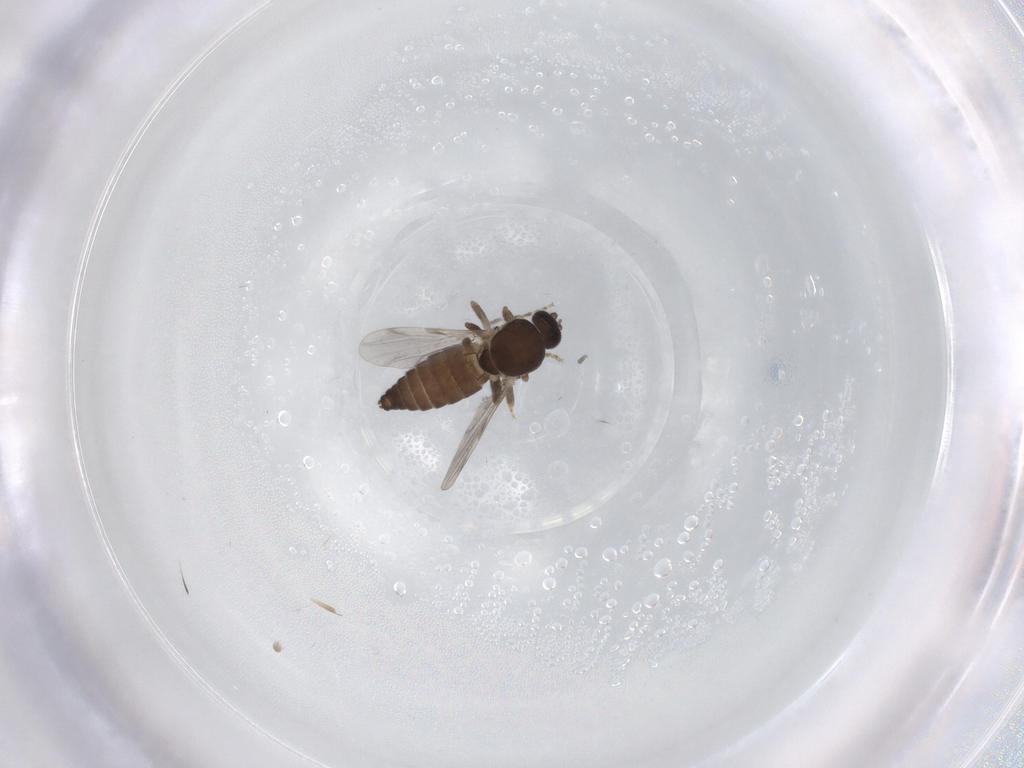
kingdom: Animalia
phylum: Arthropoda
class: Insecta
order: Diptera
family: Ceratopogonidae
